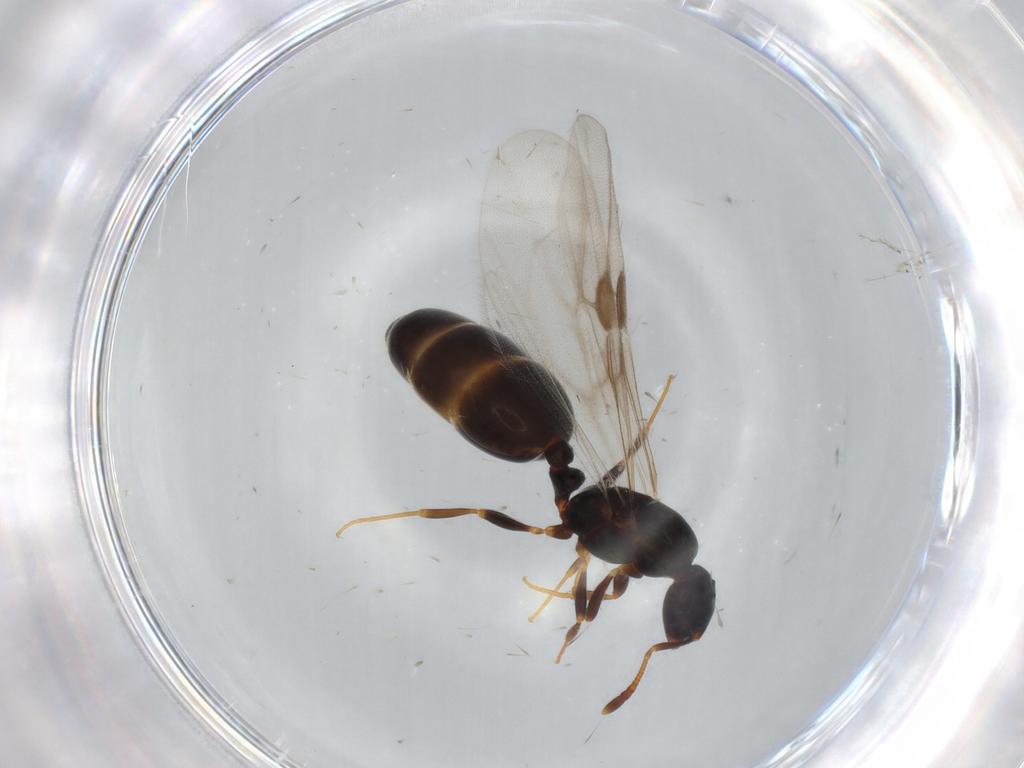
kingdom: Animalia
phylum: Arthropoda
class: Insecta
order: Hymenoptera
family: Formicidae
